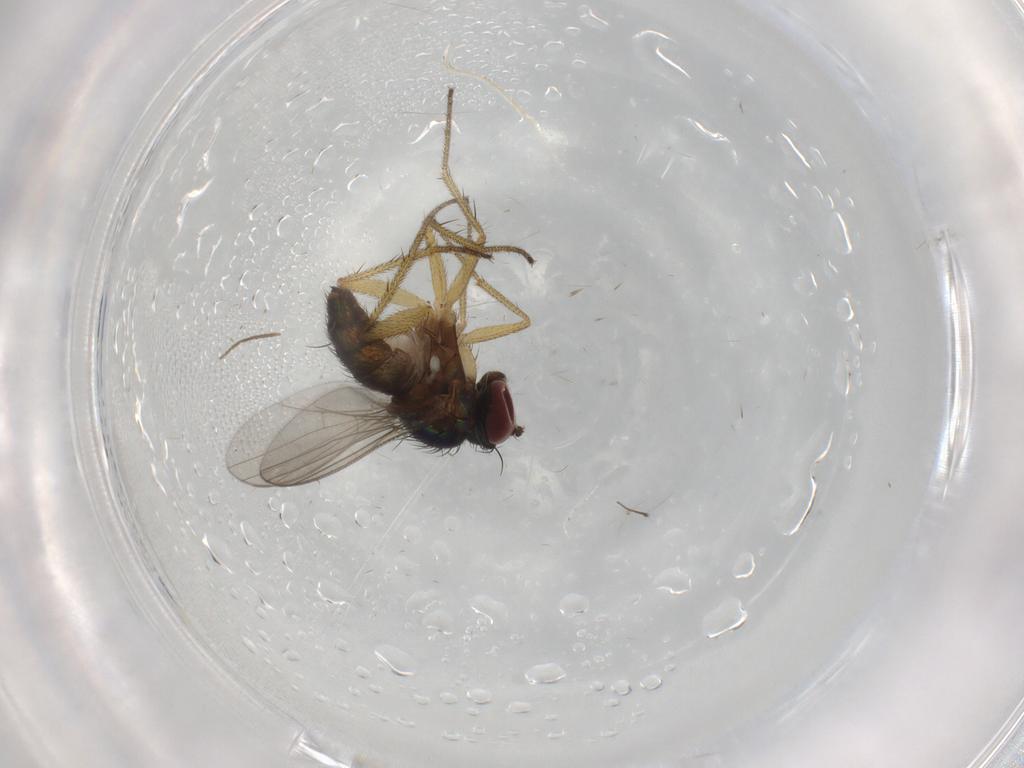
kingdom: Animalia
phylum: Arthropoda
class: Insecta
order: Diptera
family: Chironomidae
